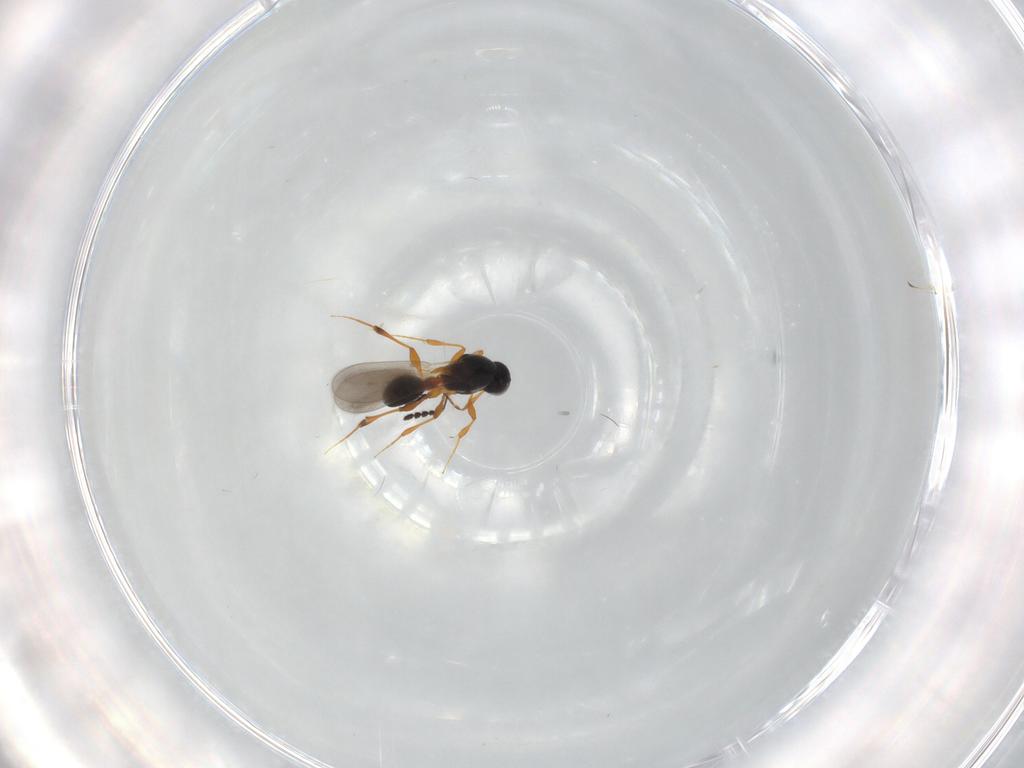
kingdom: Animalia
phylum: Arthropoda
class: Insecta
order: Hymenoptera
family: Platygastridae
